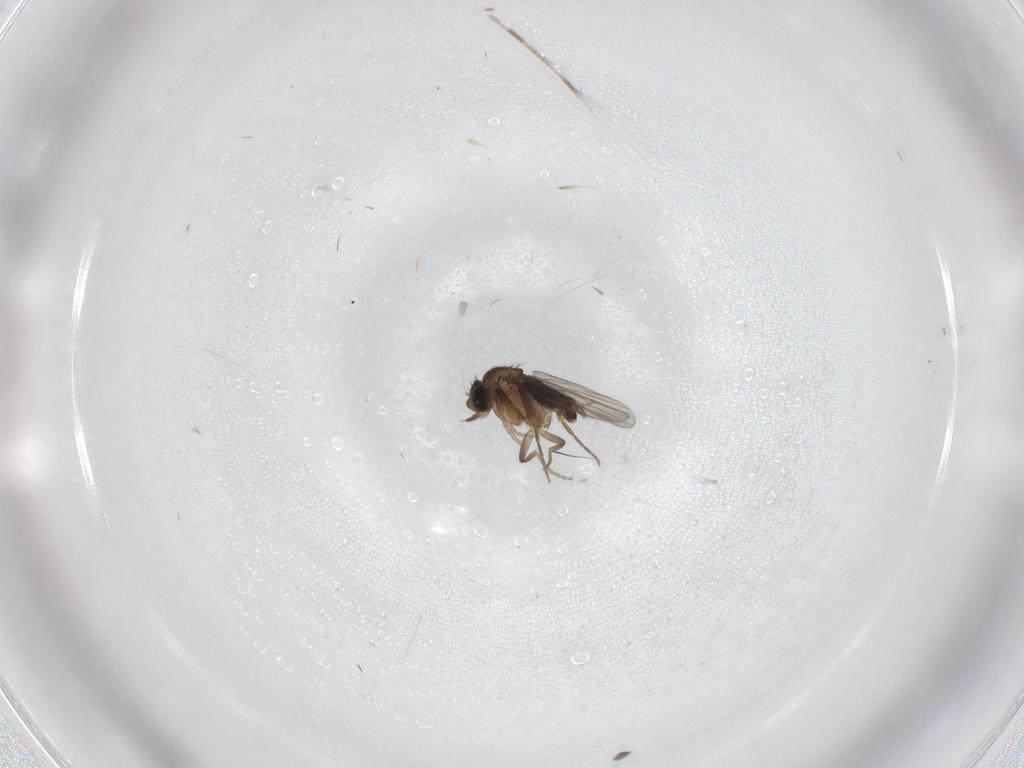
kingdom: Animalia
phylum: Arthropoda
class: Insecta
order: Diptera
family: Phoridae
